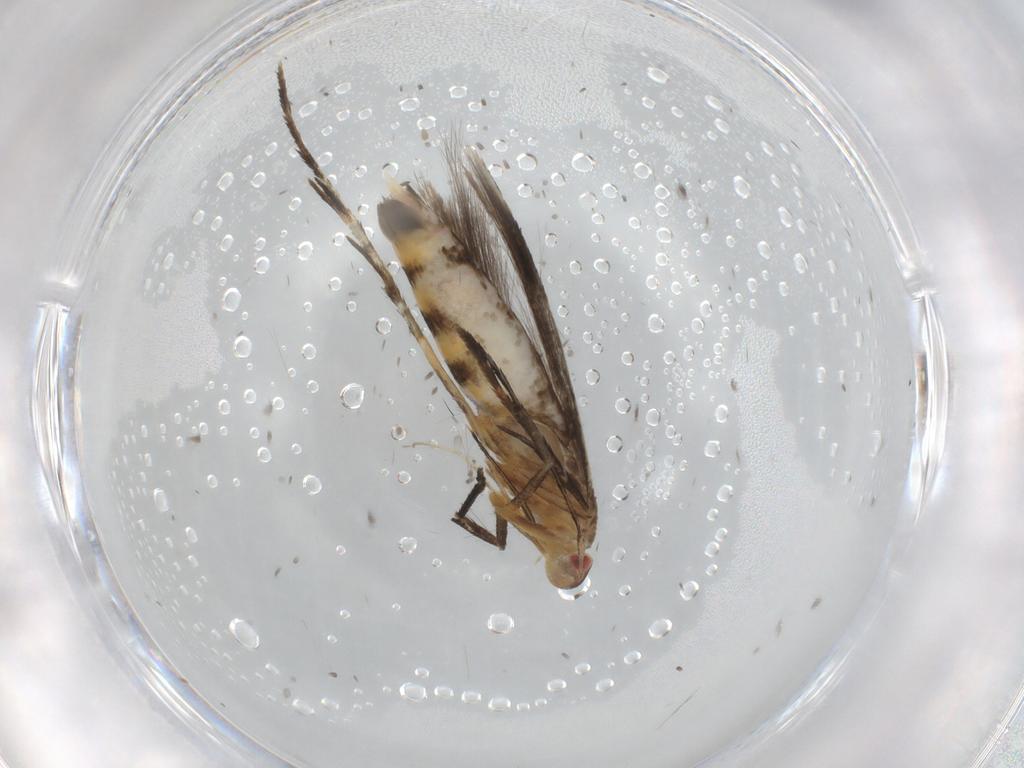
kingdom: Animalia
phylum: Arthropoda
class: Insecta
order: Lepidoptera
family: Cosmopterigidae
